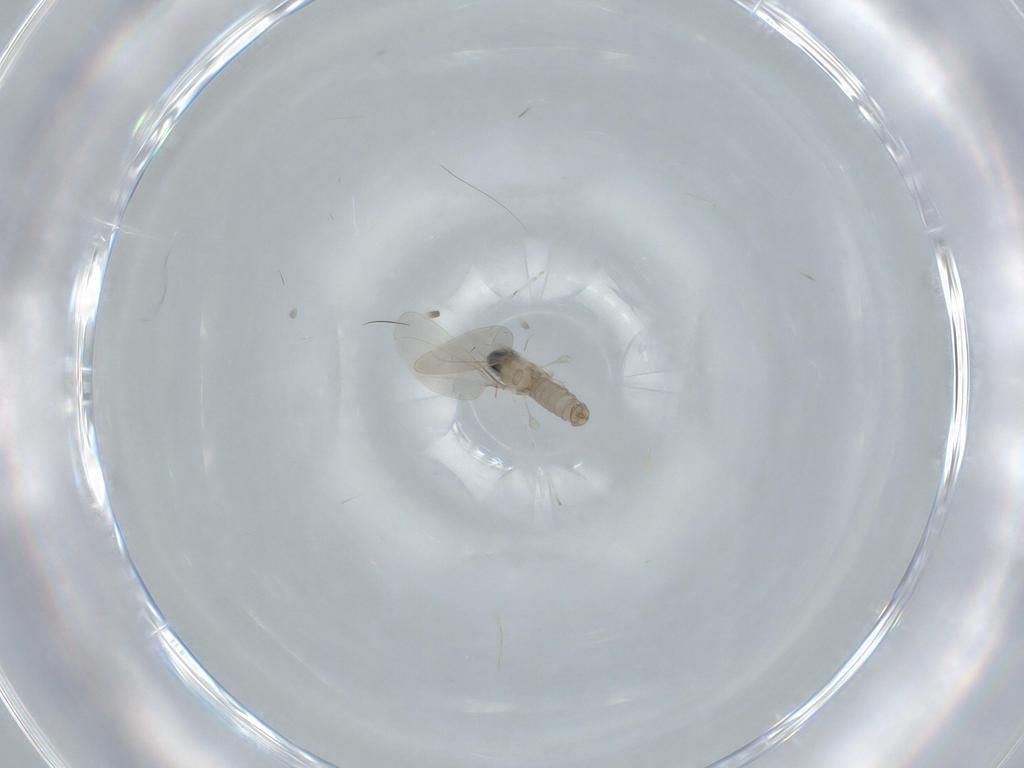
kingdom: Animalia
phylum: Arthropoda
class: Insecta
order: Diptera
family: Cecidomyiidae
